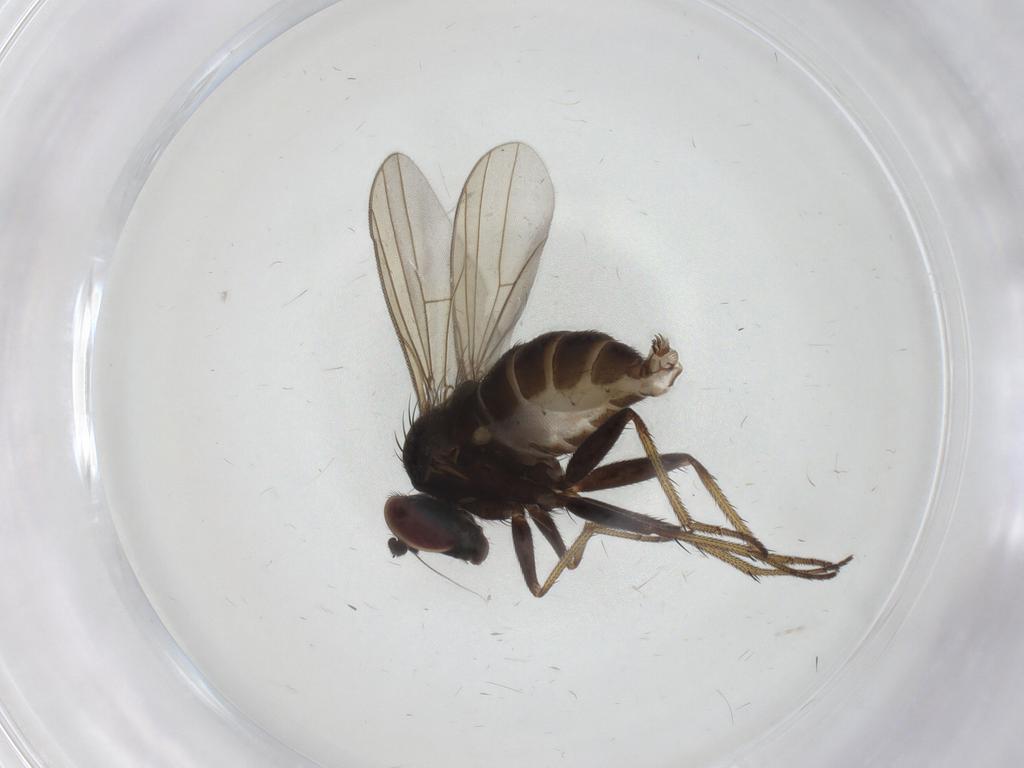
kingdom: Animalia
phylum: Arthropoda
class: Insecta
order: Diptera
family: Dolichopodidae
